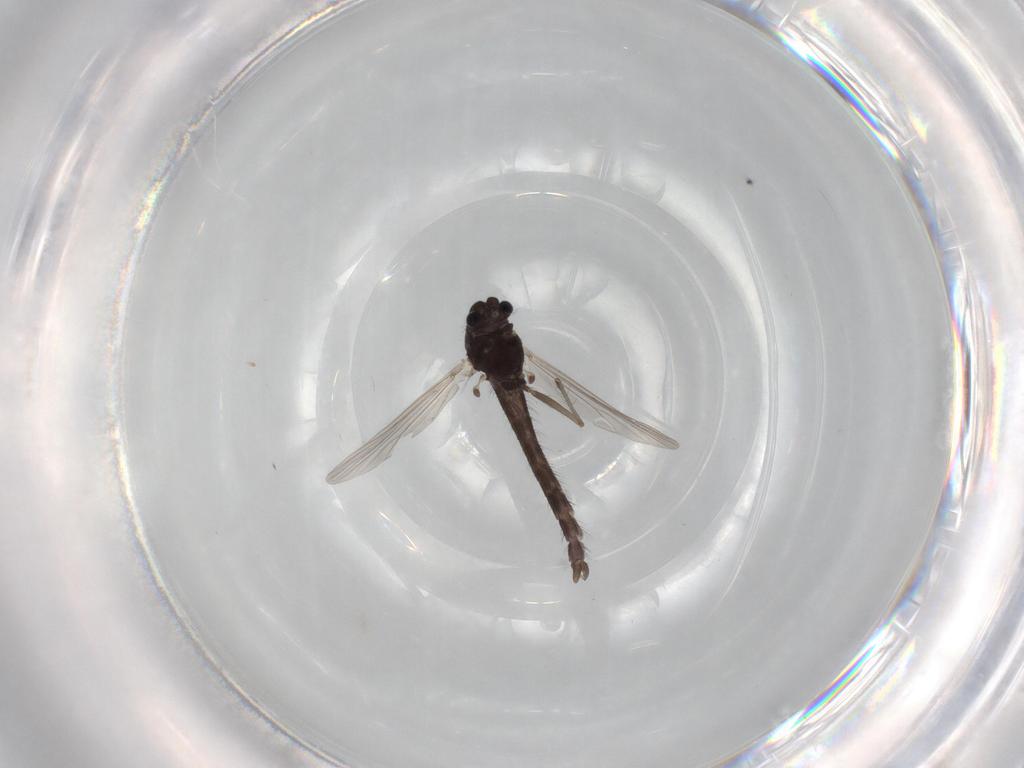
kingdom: Animalia
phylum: Arthropoda
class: Insecta
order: Diptera
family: Chironomidae
